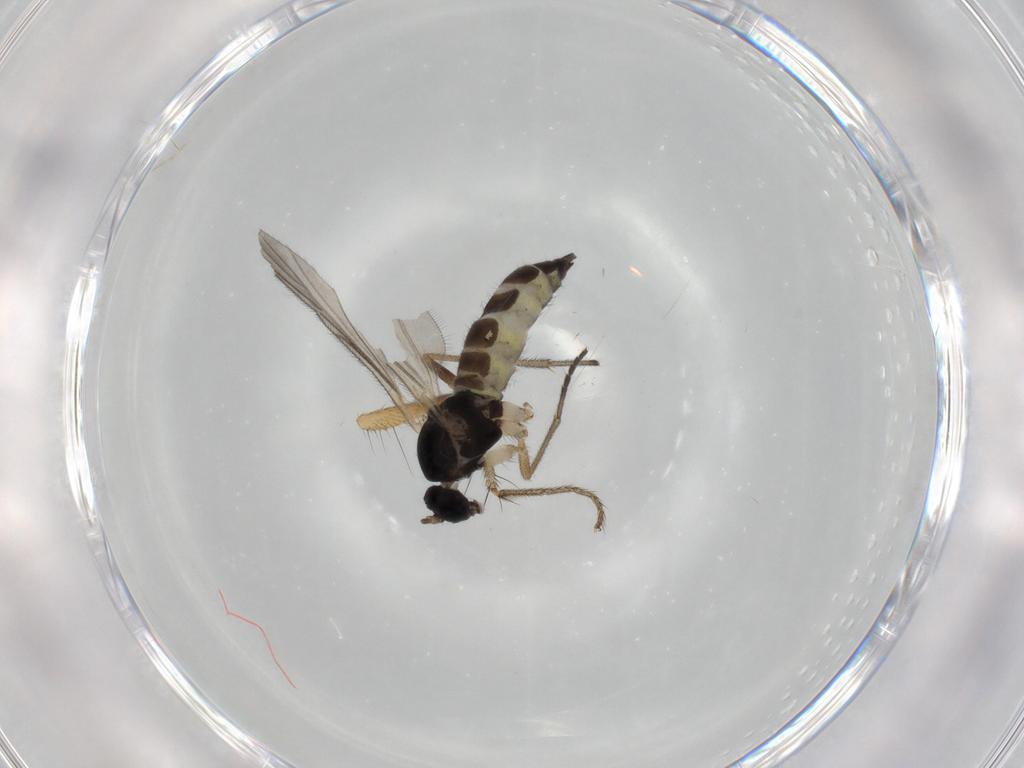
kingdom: Animalia
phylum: Arthropoda
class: Insecta
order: Diptera
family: Sciaridae
